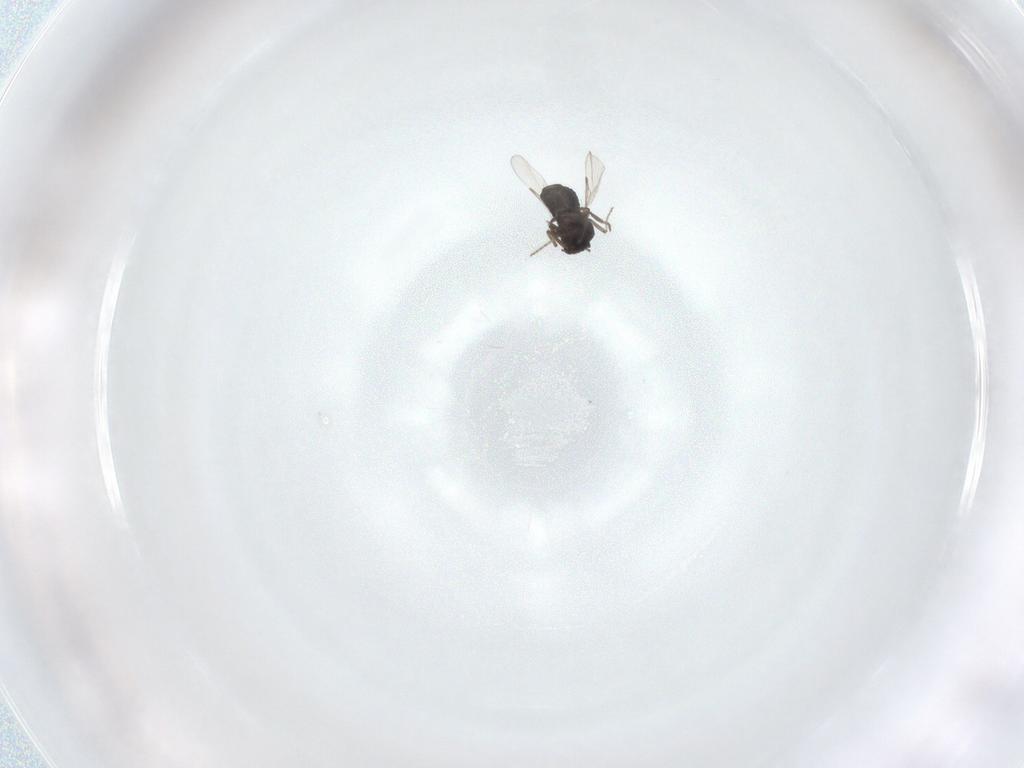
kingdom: Animalia
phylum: Arthropoda
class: Insecta
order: Diptera
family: Ceratopogonidae
